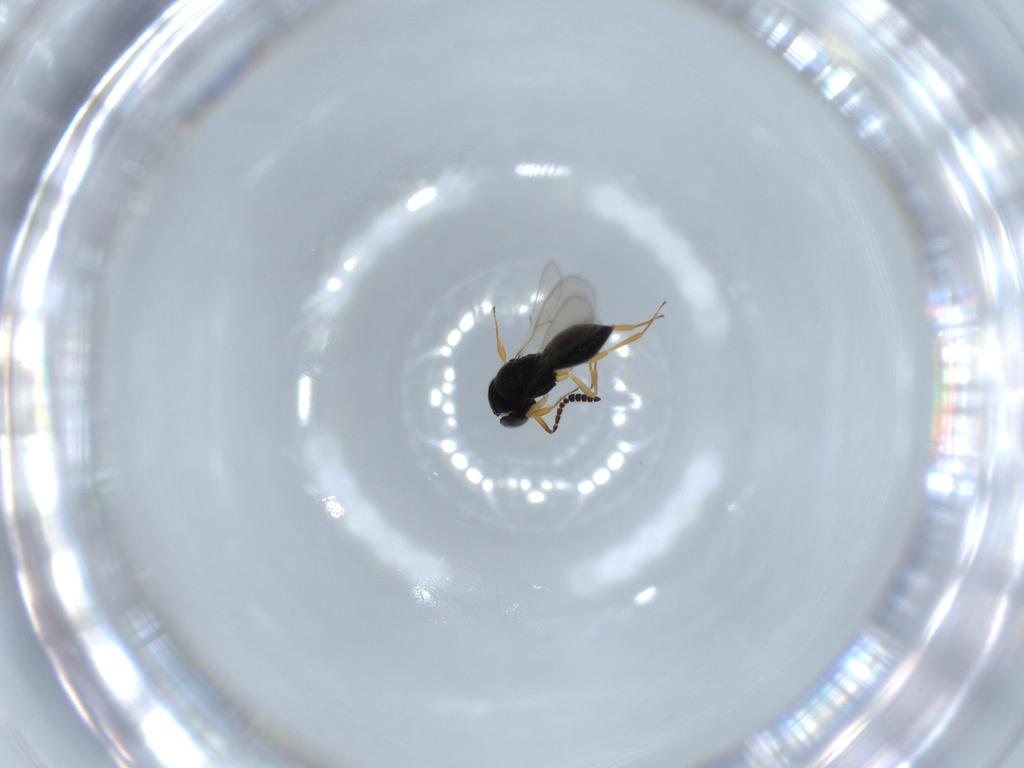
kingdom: Animalia
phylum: Arthropoda
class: Insecta
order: Hymenoptera
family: Scelionidae
